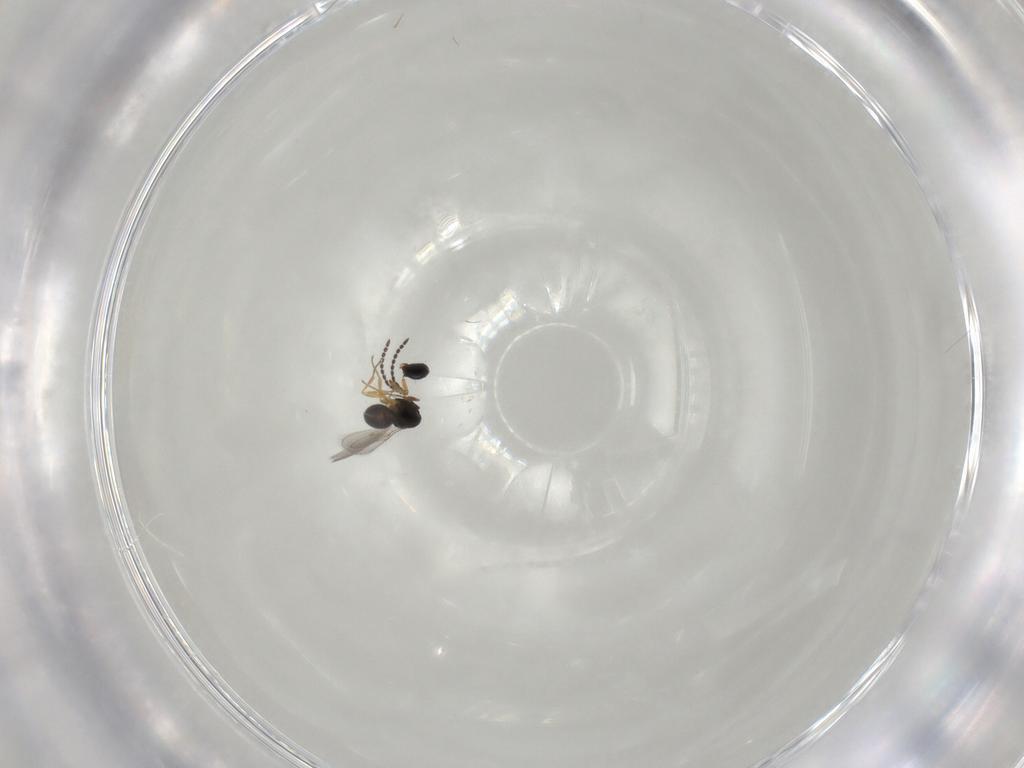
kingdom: Animalia
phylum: Arthropoda
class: Insecta
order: Hymenoptera
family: Scelionidae
